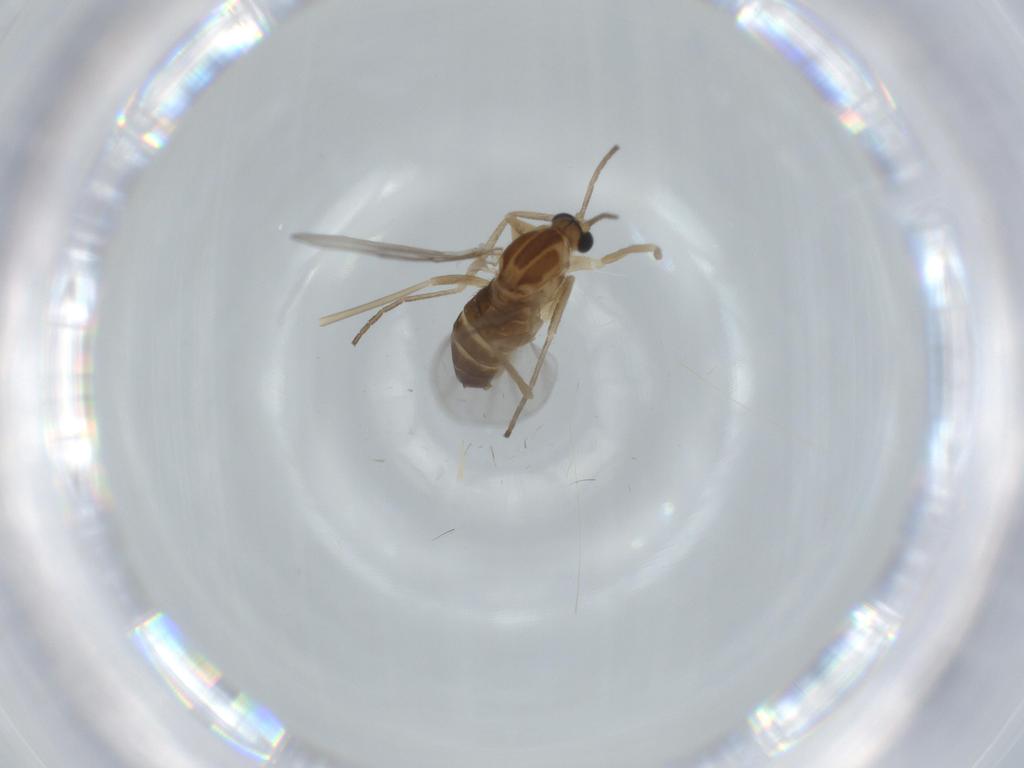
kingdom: Animalia
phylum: Arthropoda
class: Insecta
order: Diptera
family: Cecidomyiidae
